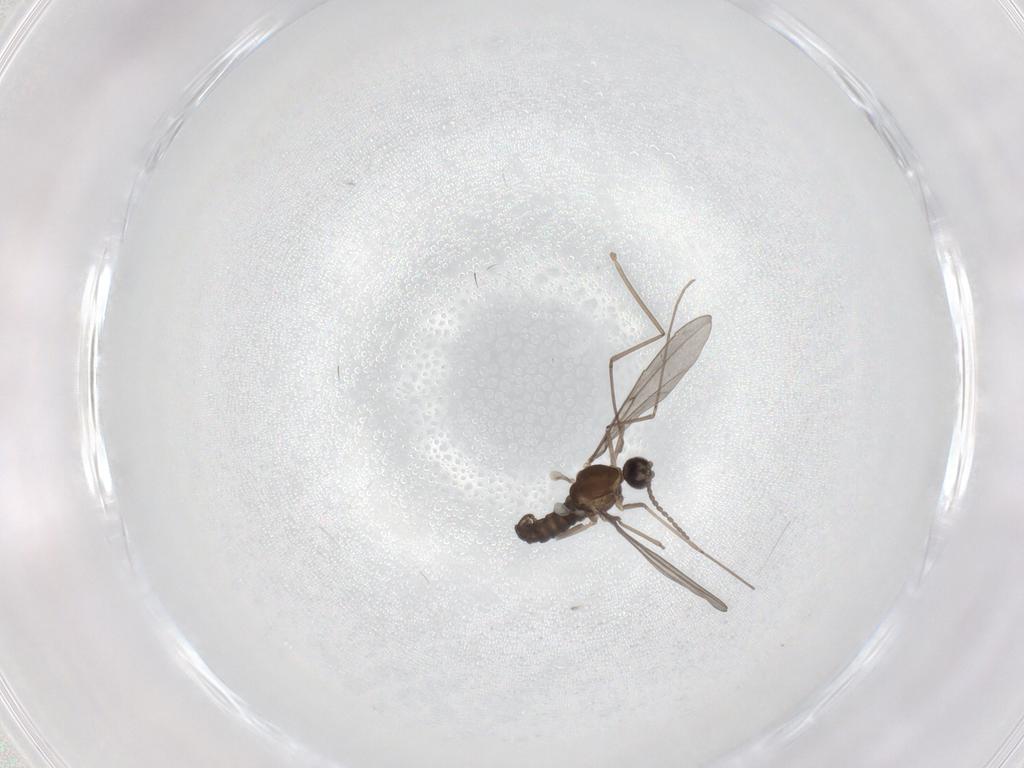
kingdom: Animalia
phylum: Arthropoda
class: Insecta
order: Diptera
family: Cecidomyiidae
